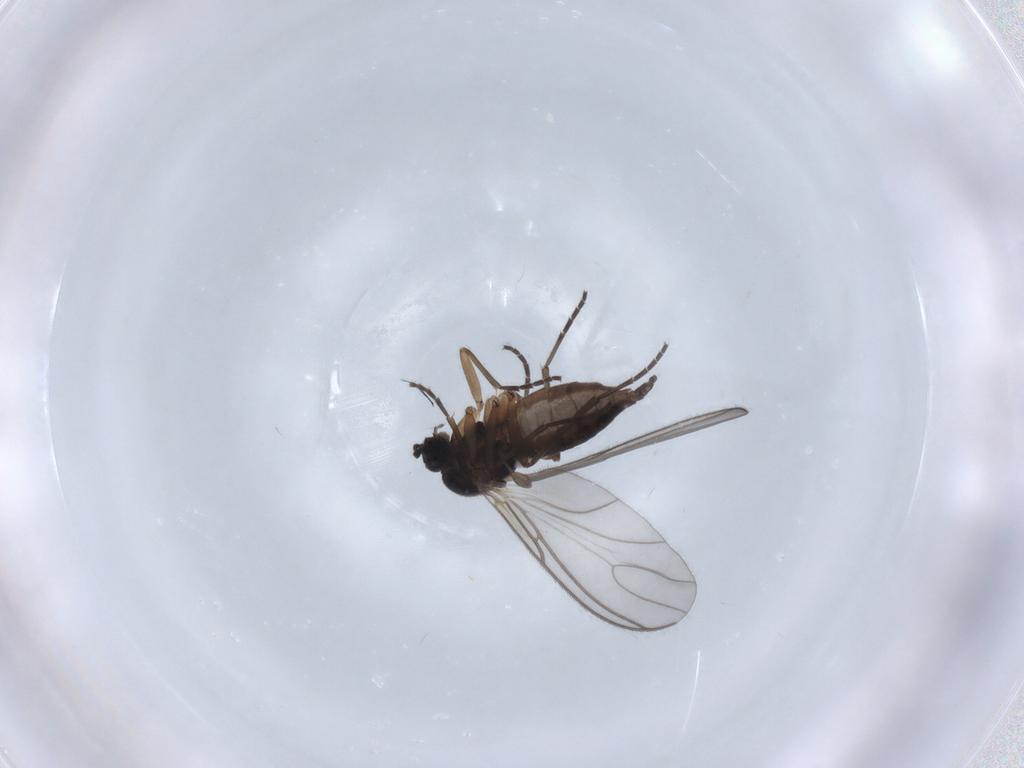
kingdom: Animalia
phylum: Arthropoda
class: Insecta
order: Diptera
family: Sciaridae
